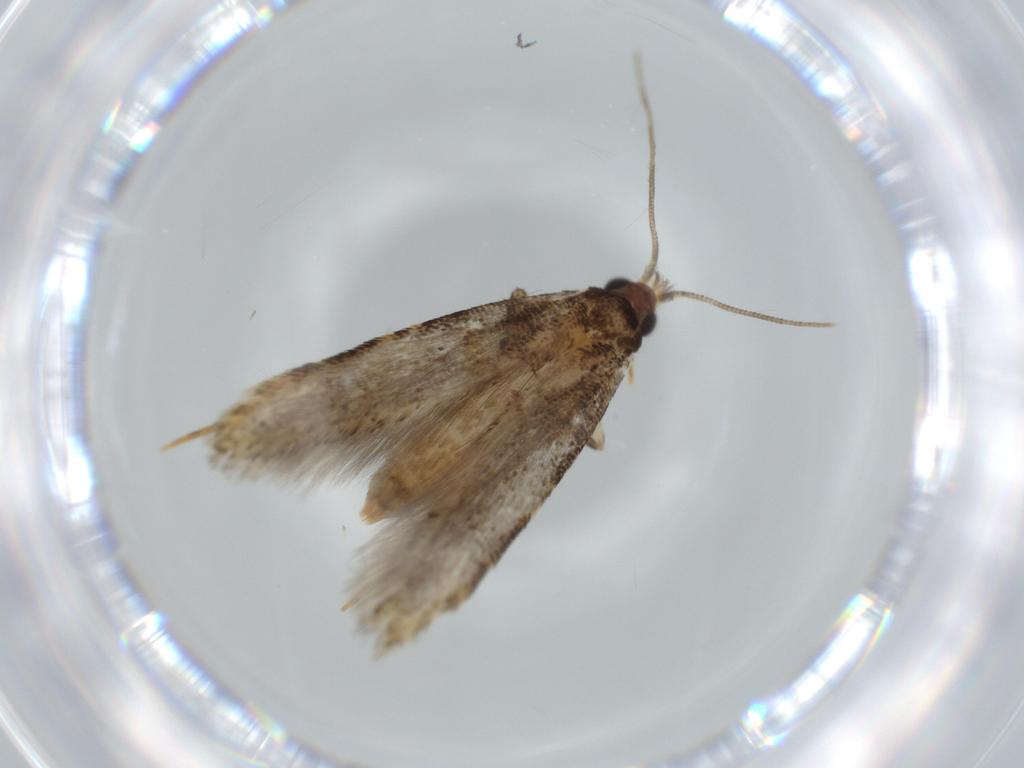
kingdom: Animalia
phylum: Arthropoda
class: Insecta
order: Lepidoptera
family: Tineidae
